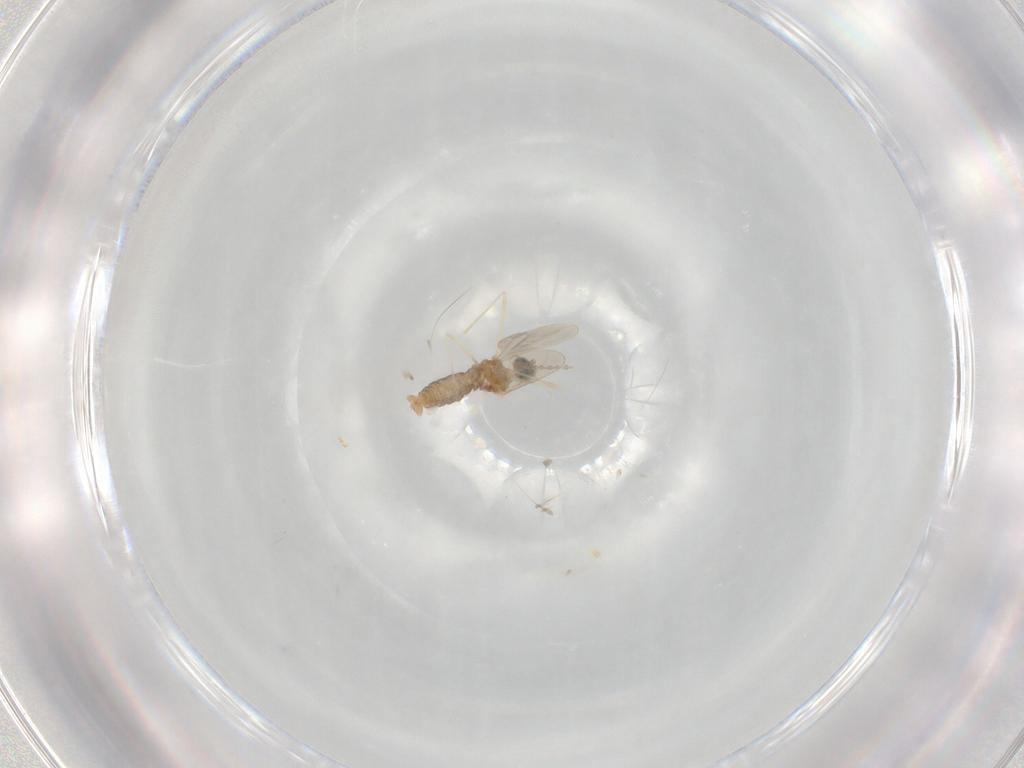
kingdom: Animalia
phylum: Arthropoda
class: Insecta
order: Diptera
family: Cecidomyiidae
